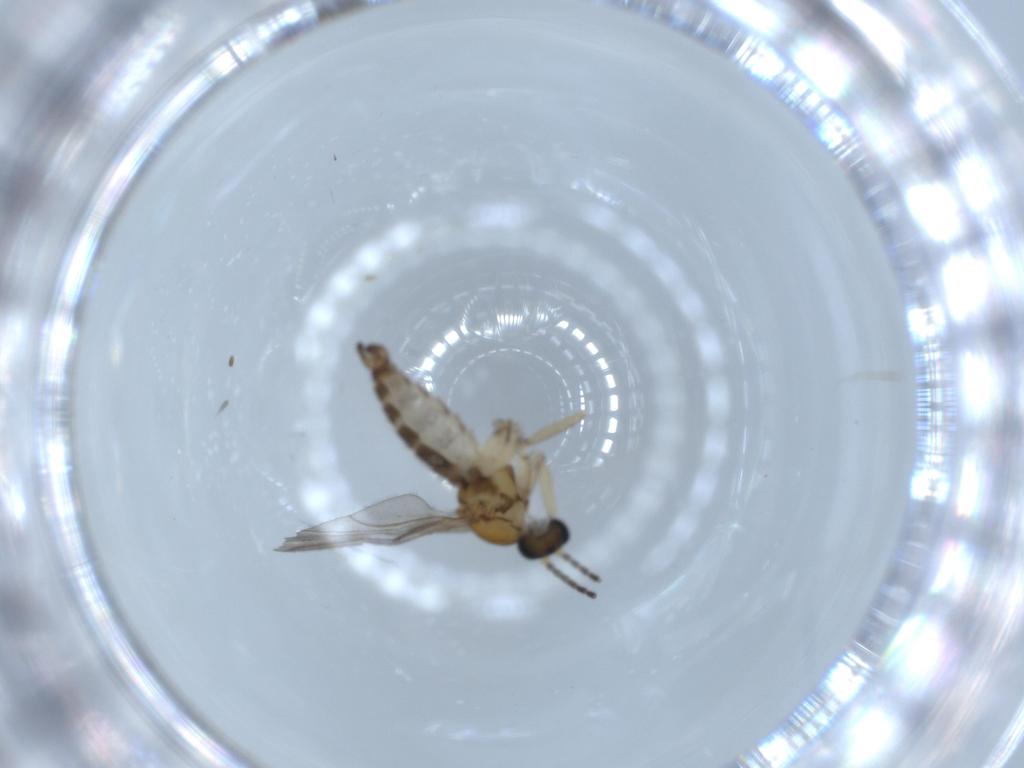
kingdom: Animalia
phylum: Arthropoda
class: Insecta
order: Diptera
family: Sciaridae
